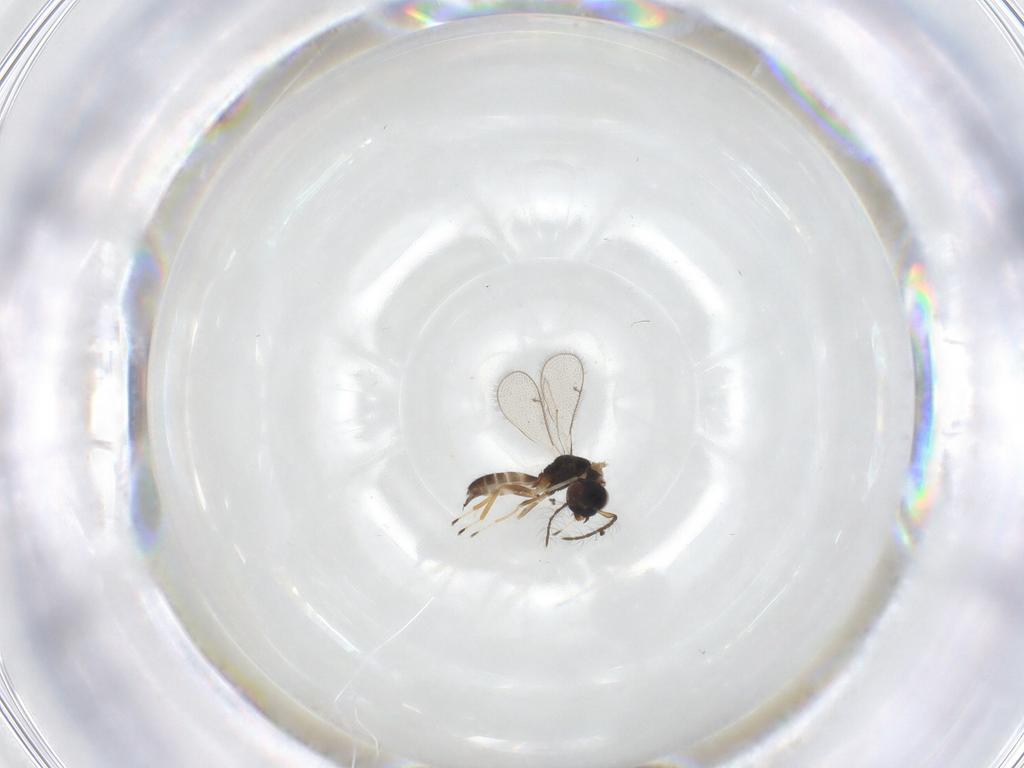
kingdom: Animalia
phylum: Arthropoda
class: Insecta
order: Hymenoptera
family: Eulophidae
